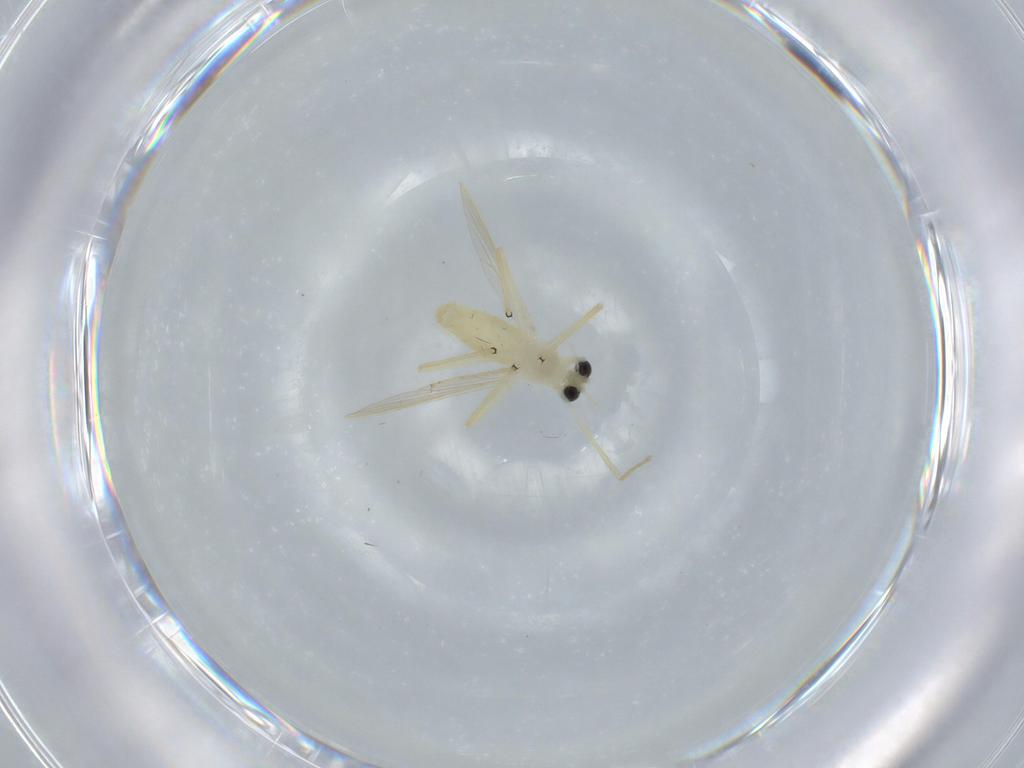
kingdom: Animalia
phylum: Arthropoda
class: Insecta
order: Diptera
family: Chironomidae
